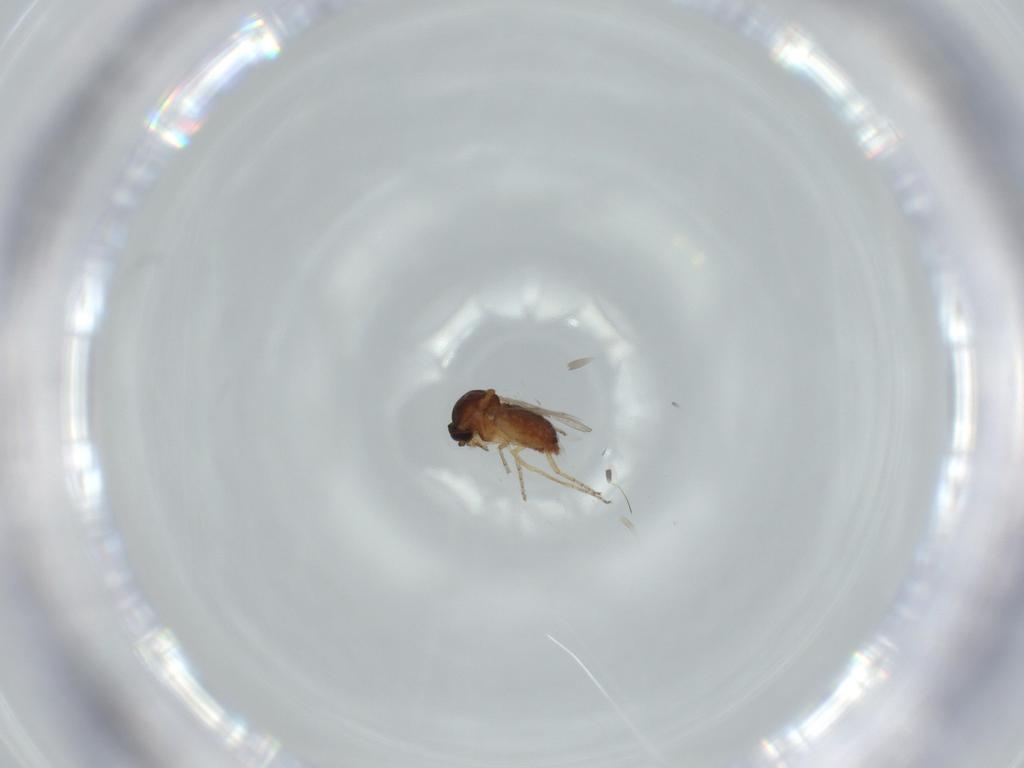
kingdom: Animalia
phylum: Arthropoda
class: Insecta
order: Diptera
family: Ceratopogonidae
